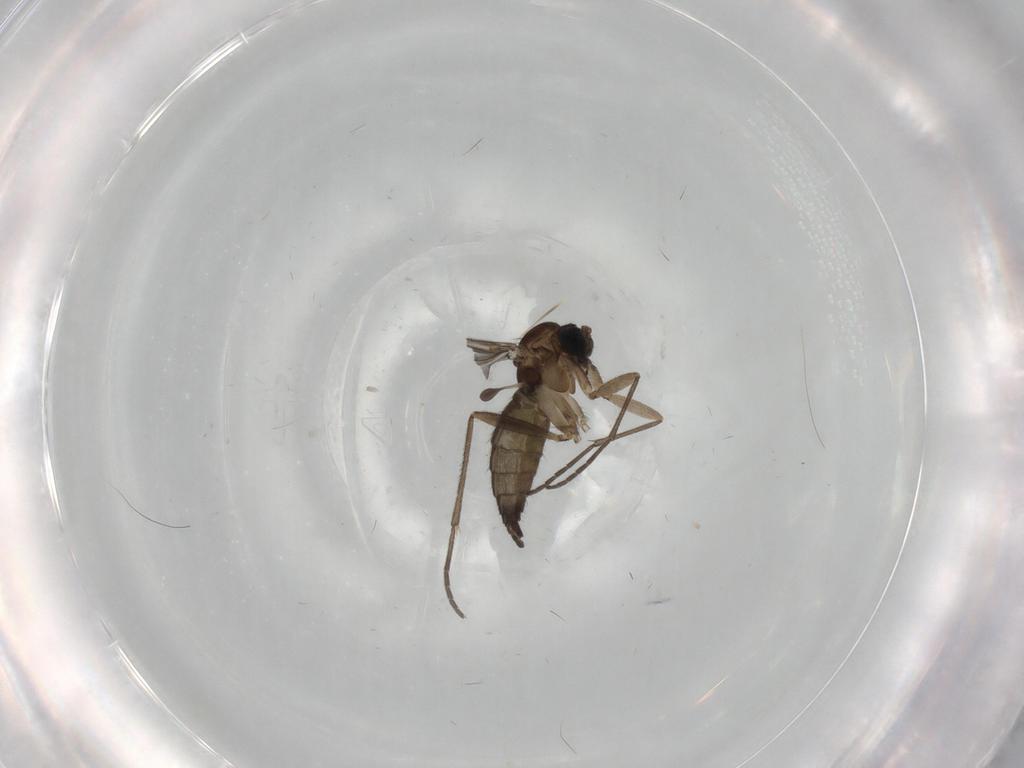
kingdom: Animalia
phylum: Arthropoda
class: Insecta
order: Diptera
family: Sciaridae
